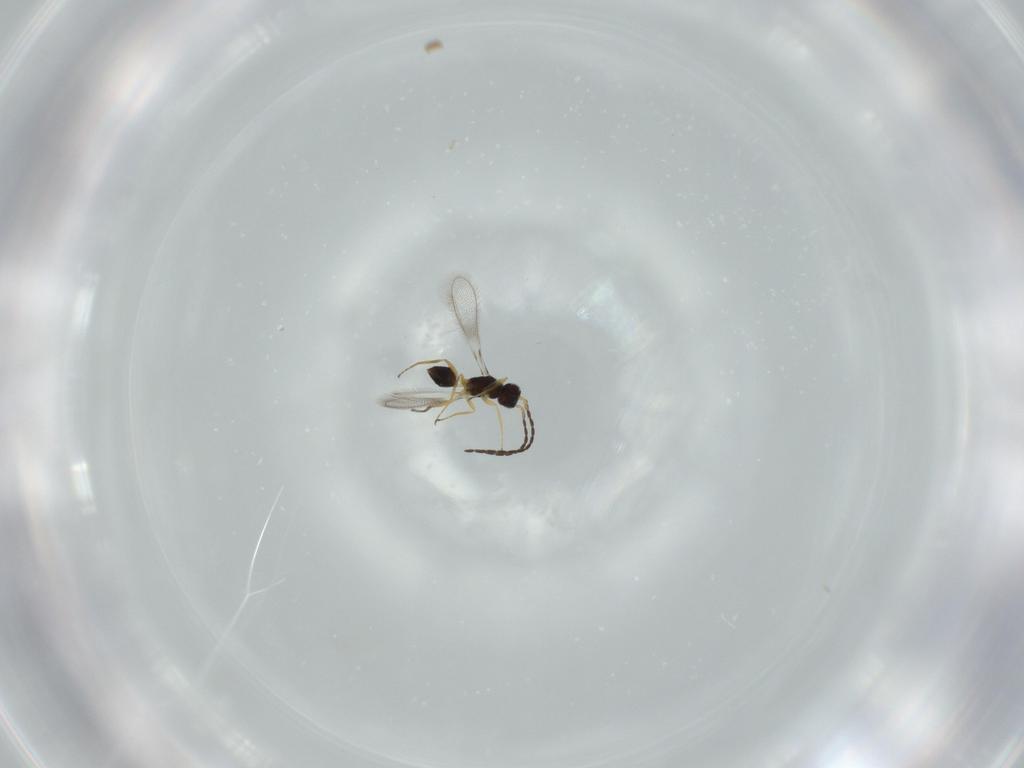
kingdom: Animalia
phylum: Arthropoda
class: Insecta
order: Hymenoptera
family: Mymaridae
